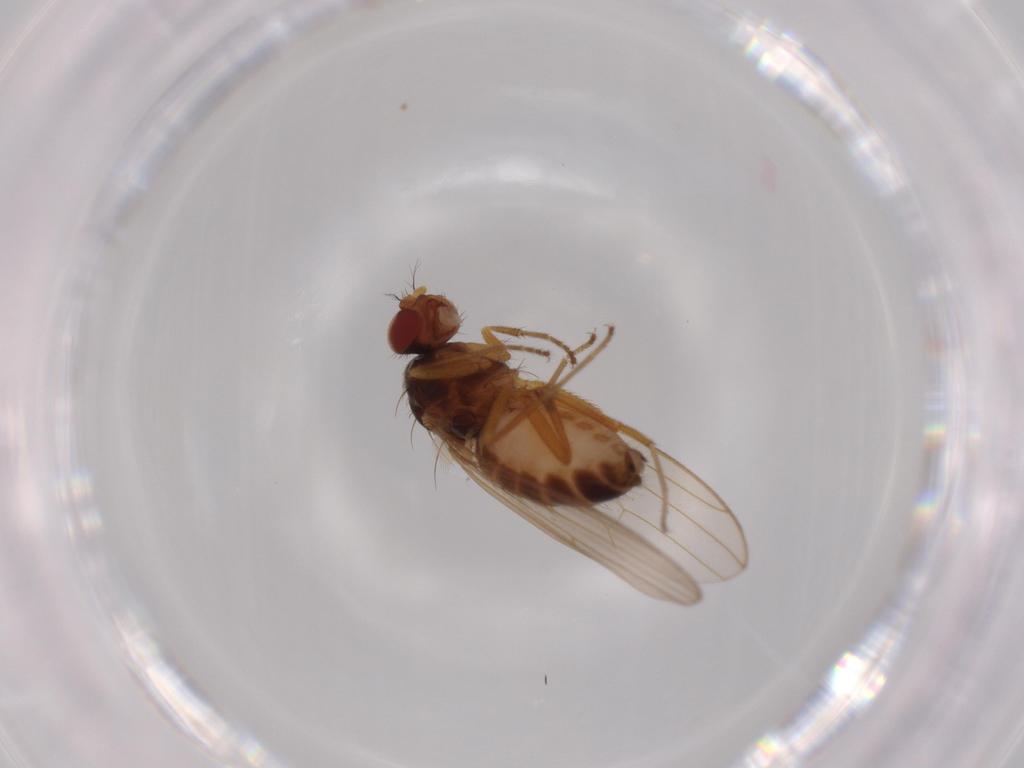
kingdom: Animalia
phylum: Arthropoda
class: Insecta
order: Diptera
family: Drosophilidae
